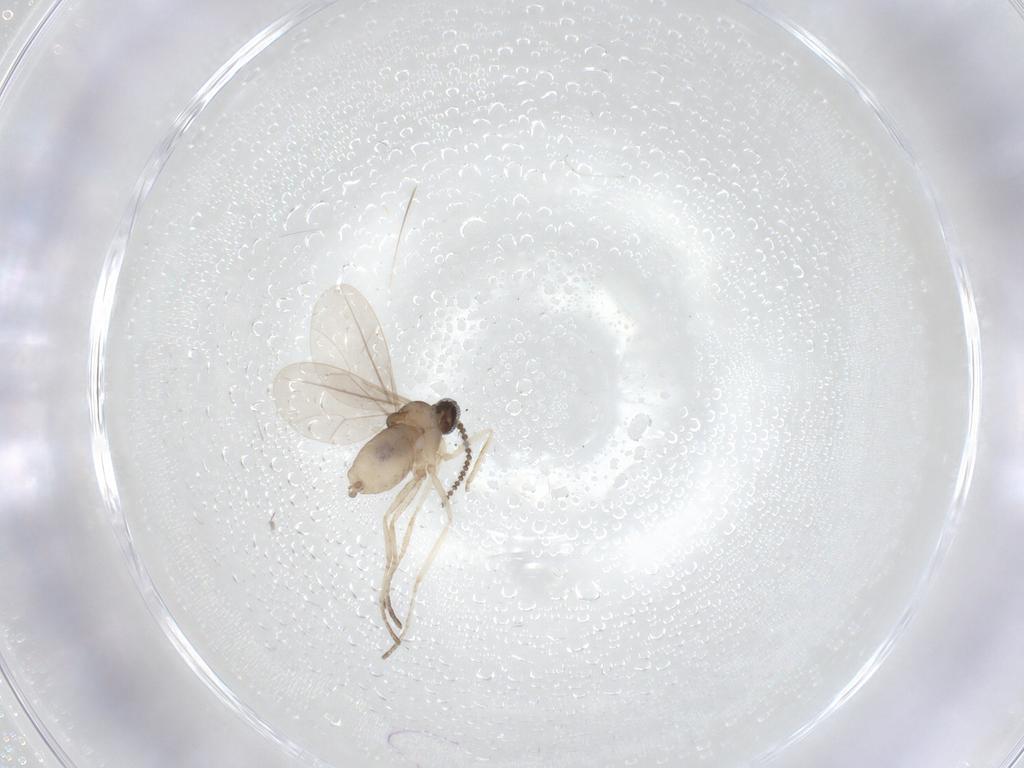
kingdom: Animalia
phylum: Arthropoda
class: Insecta
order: Diptera
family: Cecidomyiidae
